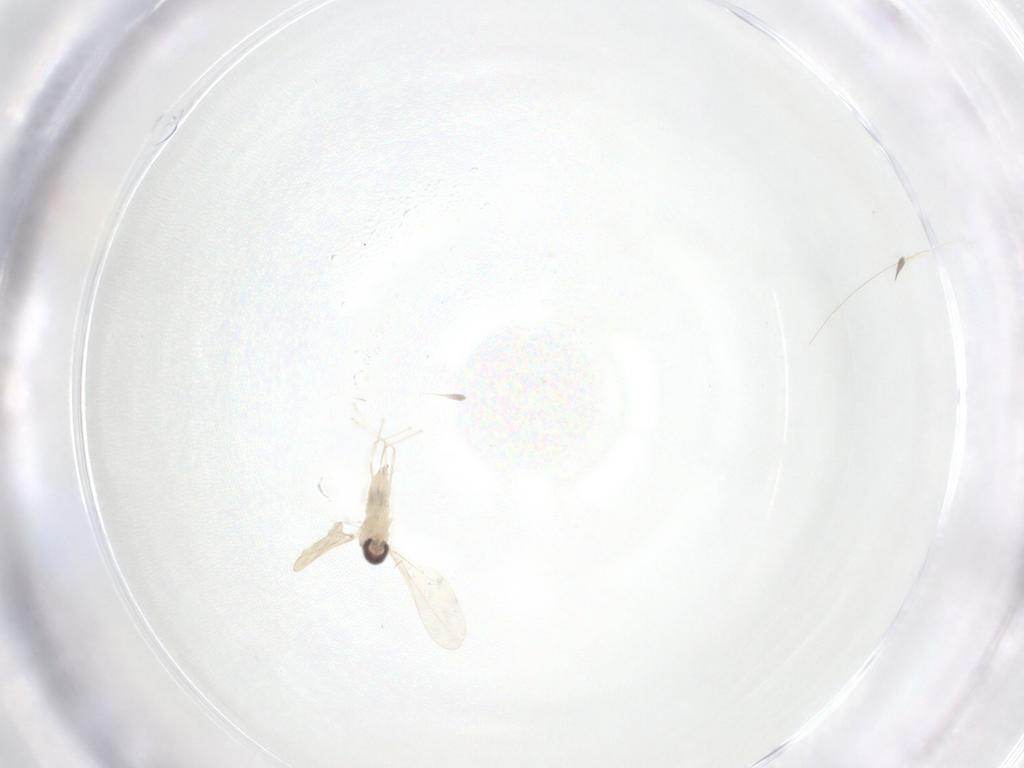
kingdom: Animalia
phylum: Arthropoda
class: Insecta
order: Diptera
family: Cecidomyiidae
